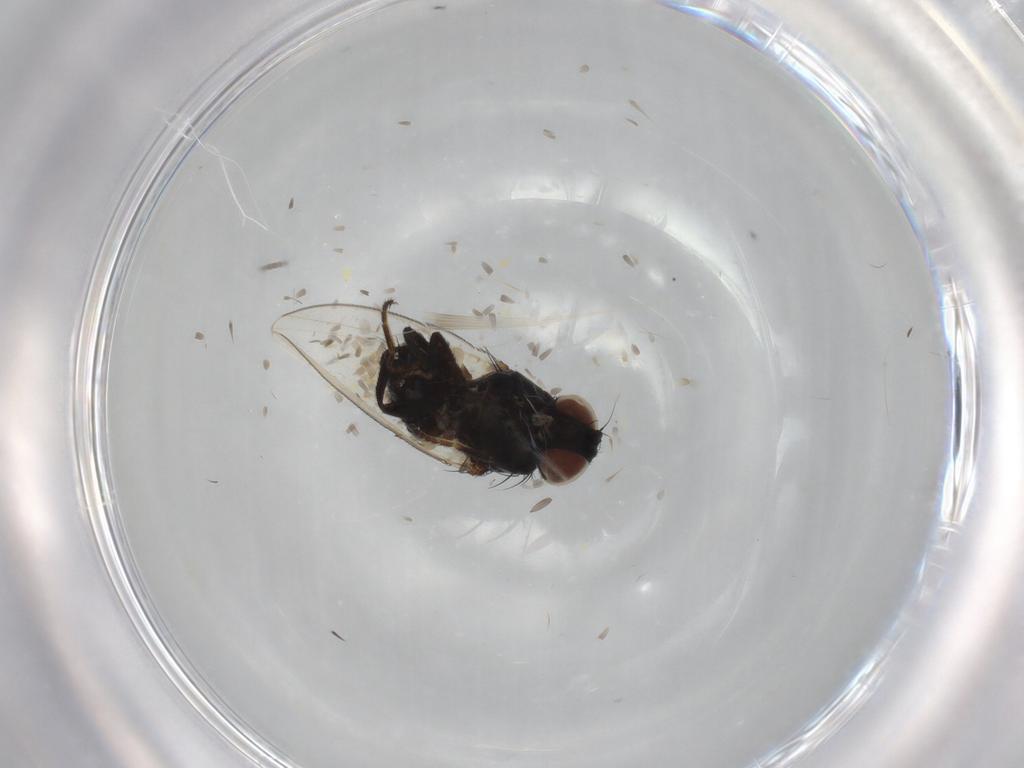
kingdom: Animalia
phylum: Arthropoda
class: Insecta
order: Diptera
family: Milichiidae
